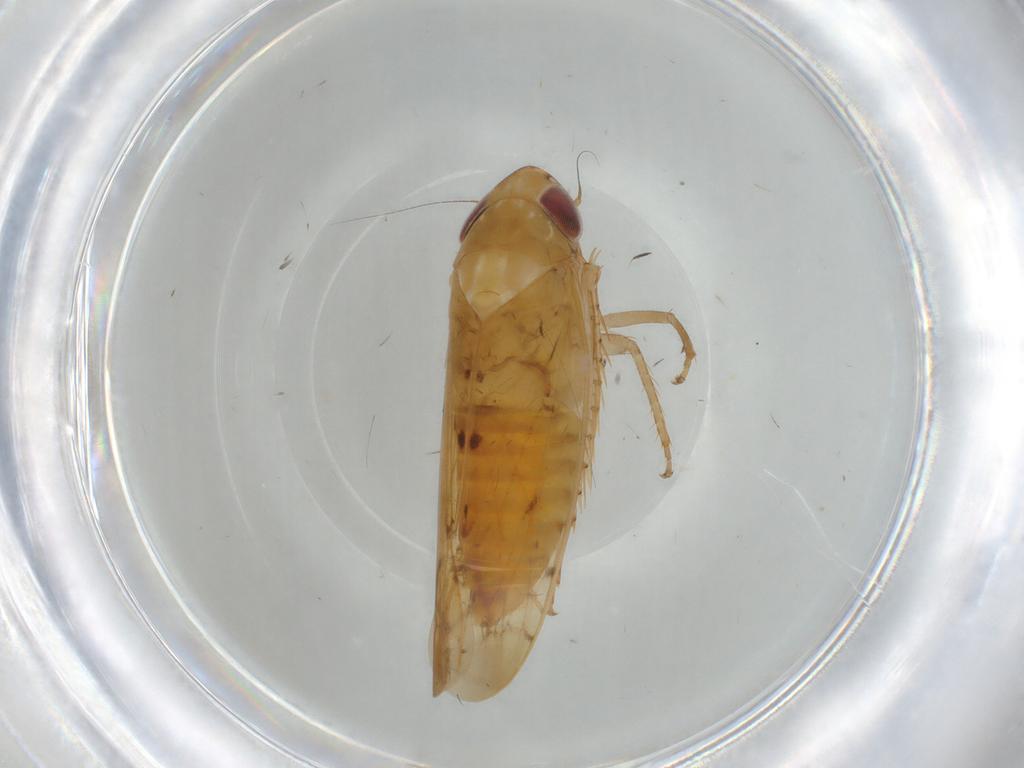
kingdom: Animalia
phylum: Arthropoda
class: Insecta
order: Hemiptera
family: Cicadellidae
